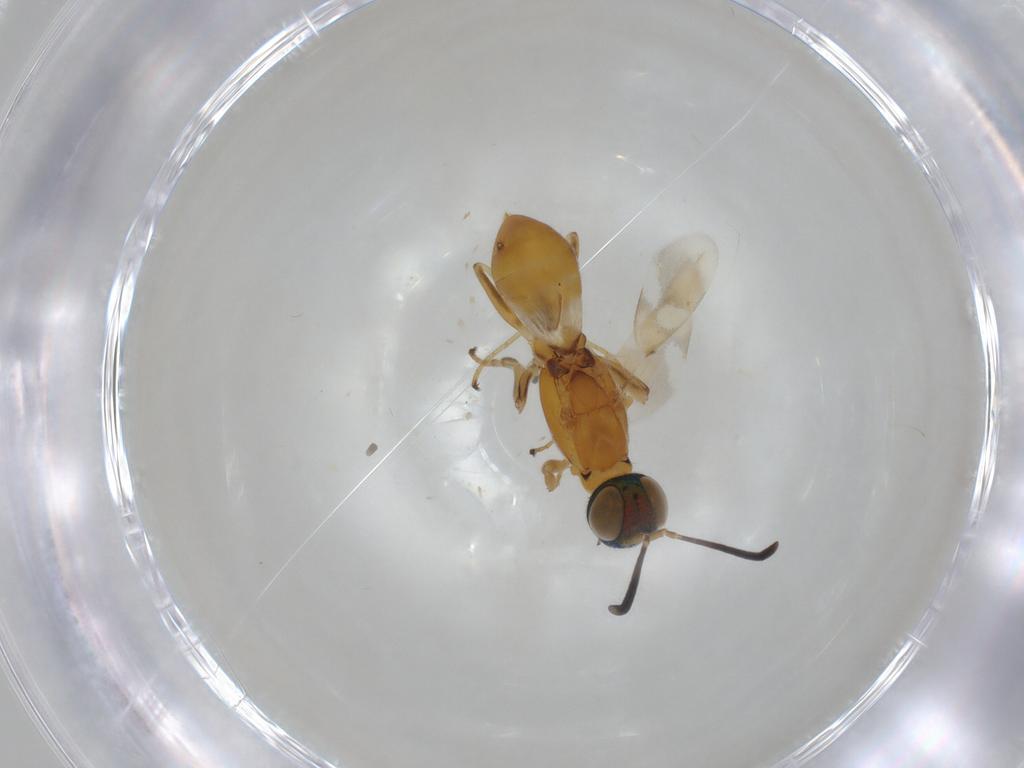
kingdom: Animalia
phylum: Arthropoda
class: Insecta
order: Hymenoptera
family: Eupelmidae
